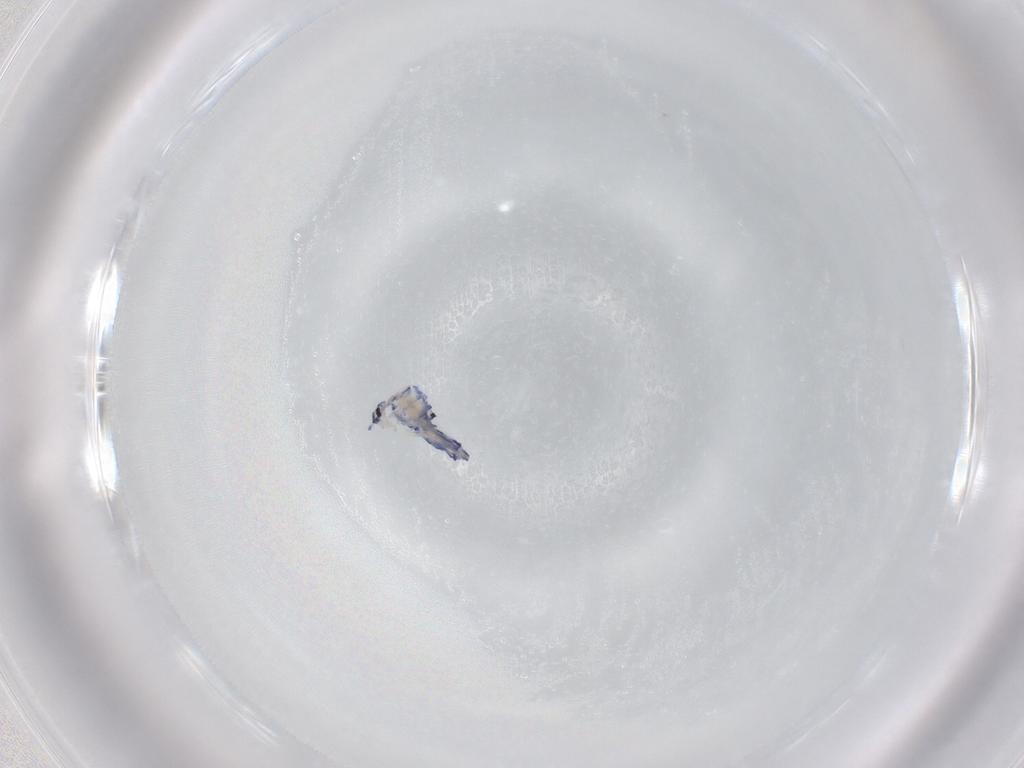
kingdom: Animalia
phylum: Arthropoda
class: Collembola
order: Entomobryomorpha
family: Entomobryidae
